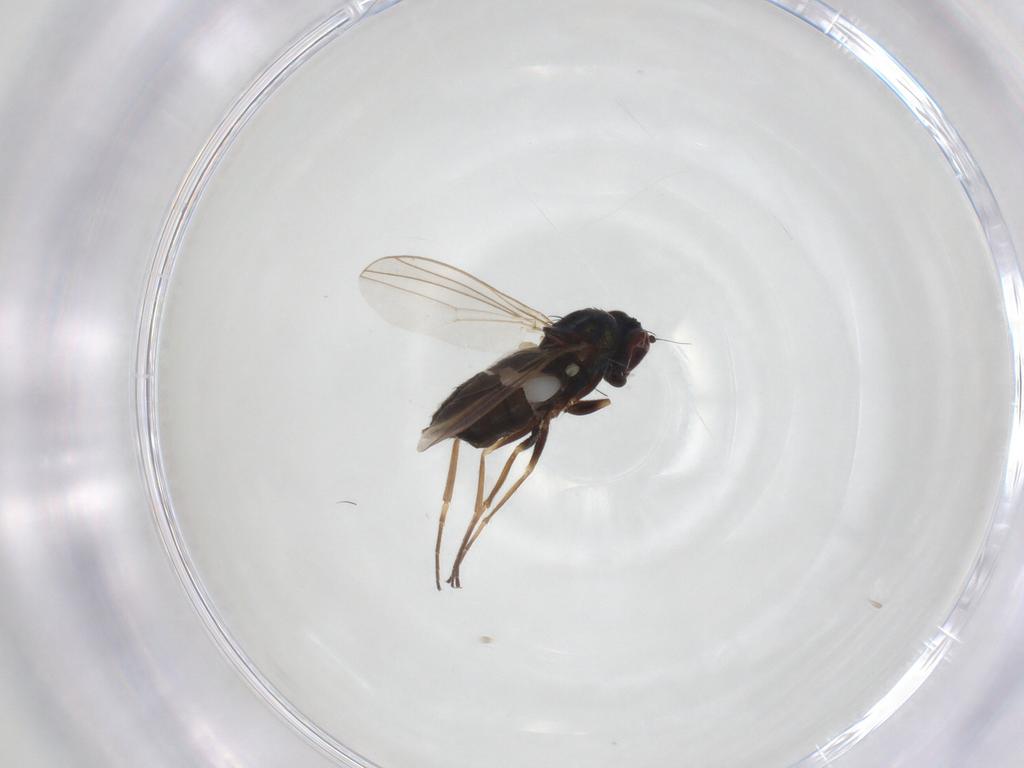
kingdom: Animalia
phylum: Arthropoda
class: Insecta
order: Diptera
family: Dolichopodidae
